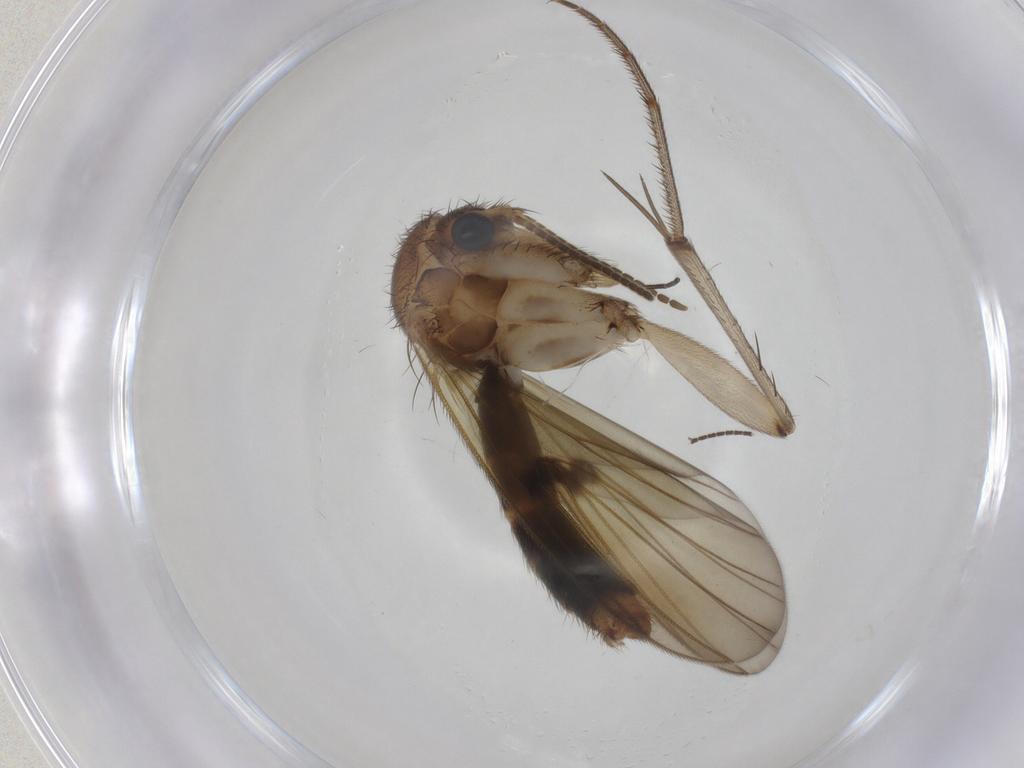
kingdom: Animalia
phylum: Arthropoda
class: Insecta
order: Diptera
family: Mycetophilidae
